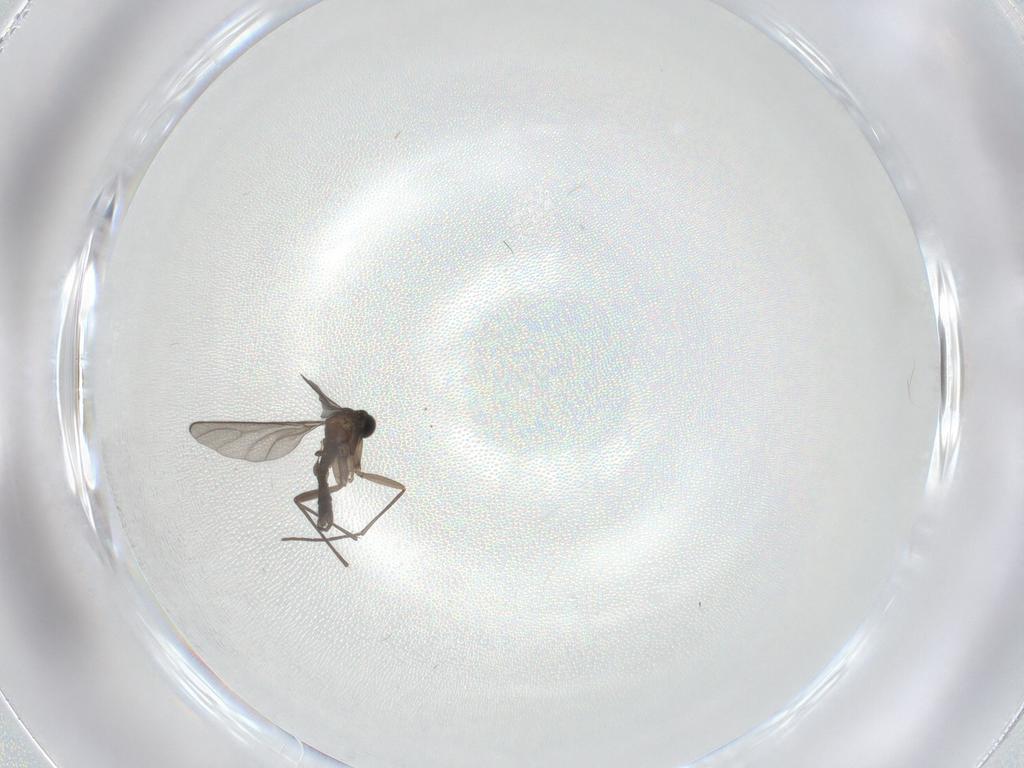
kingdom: Animalia
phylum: Arthropoda
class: Insecta
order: Diptera
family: Sciaridae
